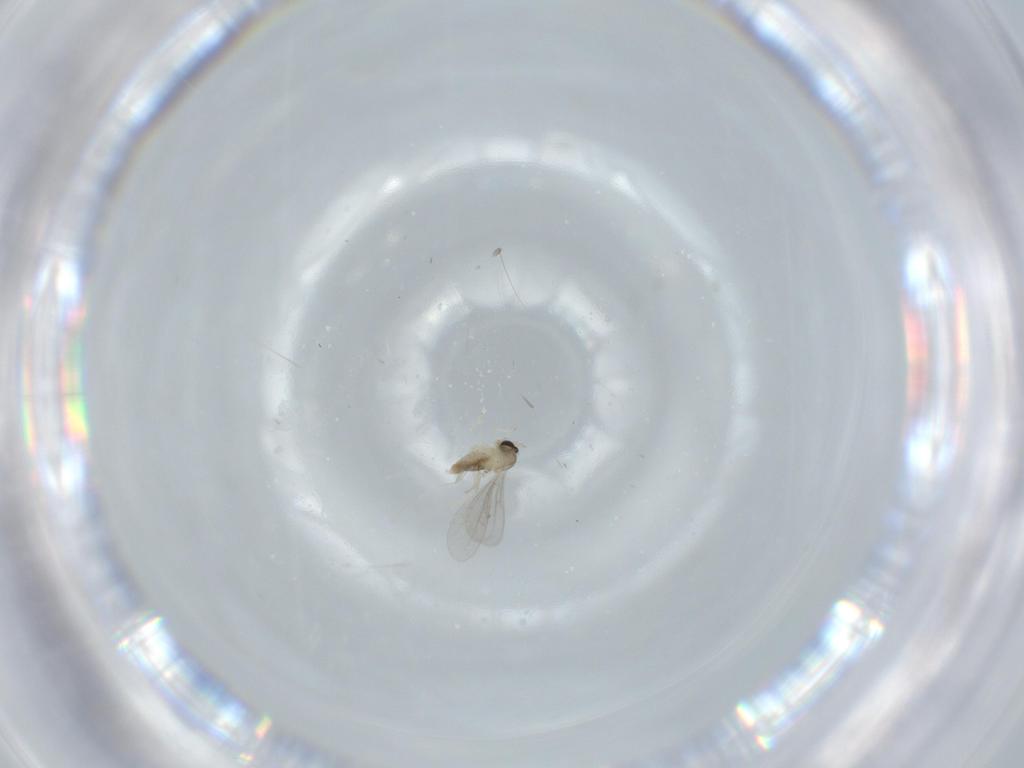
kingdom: Animalia
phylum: Arthropoda
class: Insecta
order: Diptera
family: Cecidomyiidae
